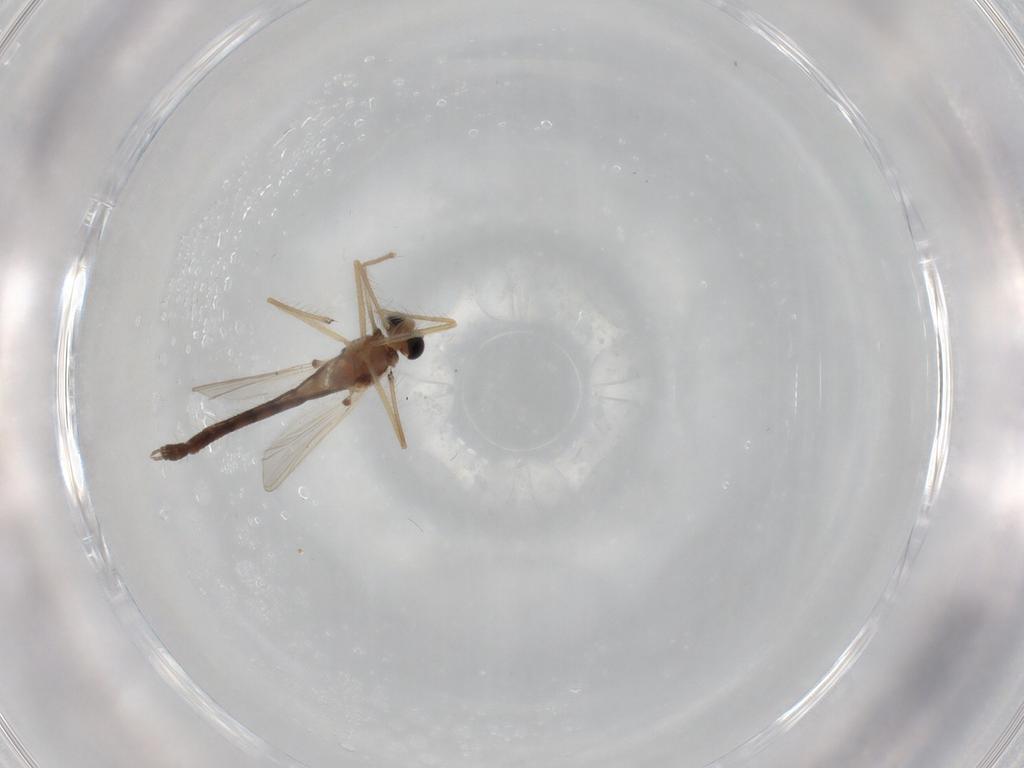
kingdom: Animalia
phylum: Arthropoda
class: Insecta
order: Diptera
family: Chironomidae
